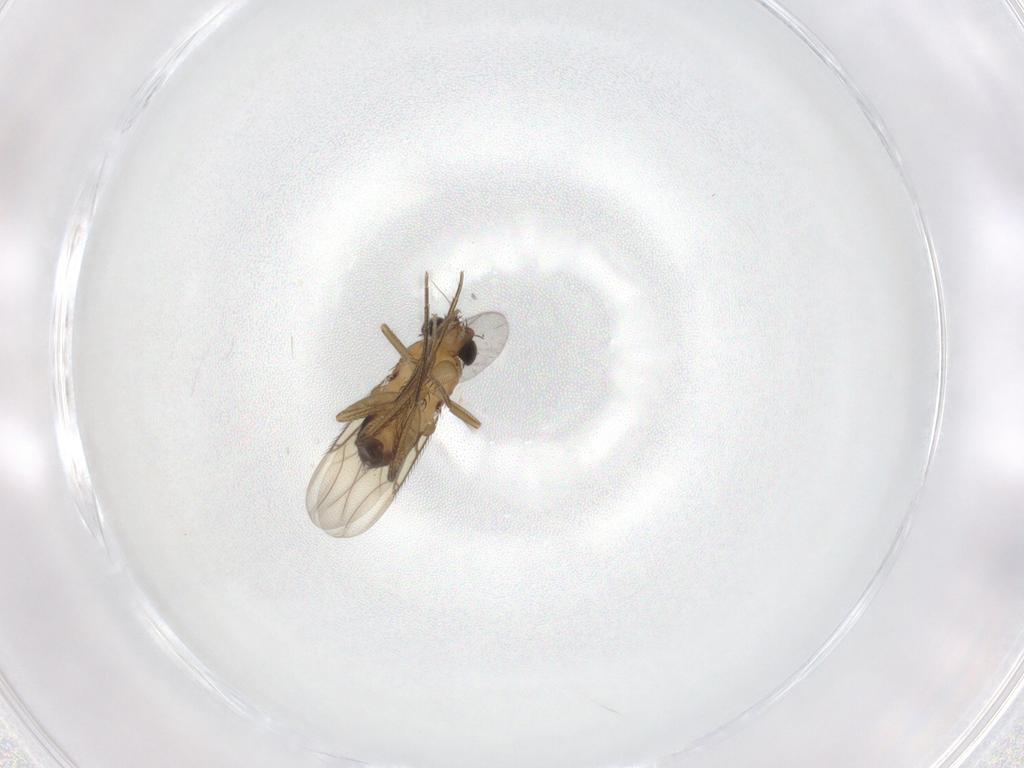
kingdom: Animalia
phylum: Arthropoda
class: Insecta
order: Diptera
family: Phoridae
